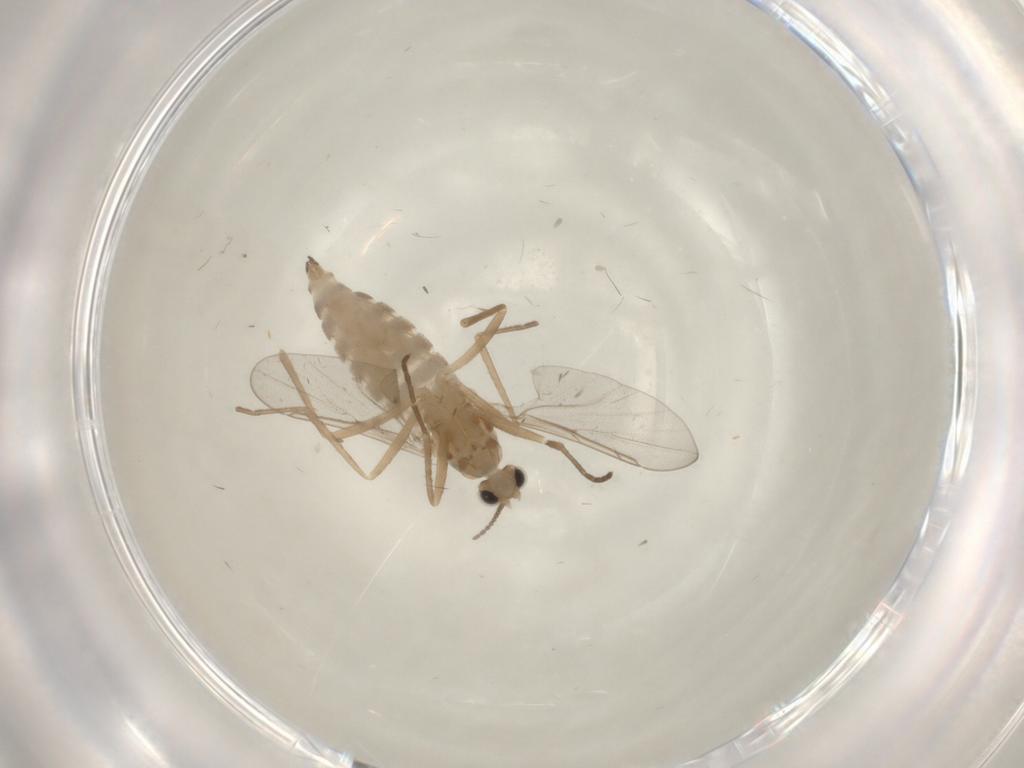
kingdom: Animalia
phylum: Arthropoda
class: Insecta
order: Diptera
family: Cecidomyiidae
